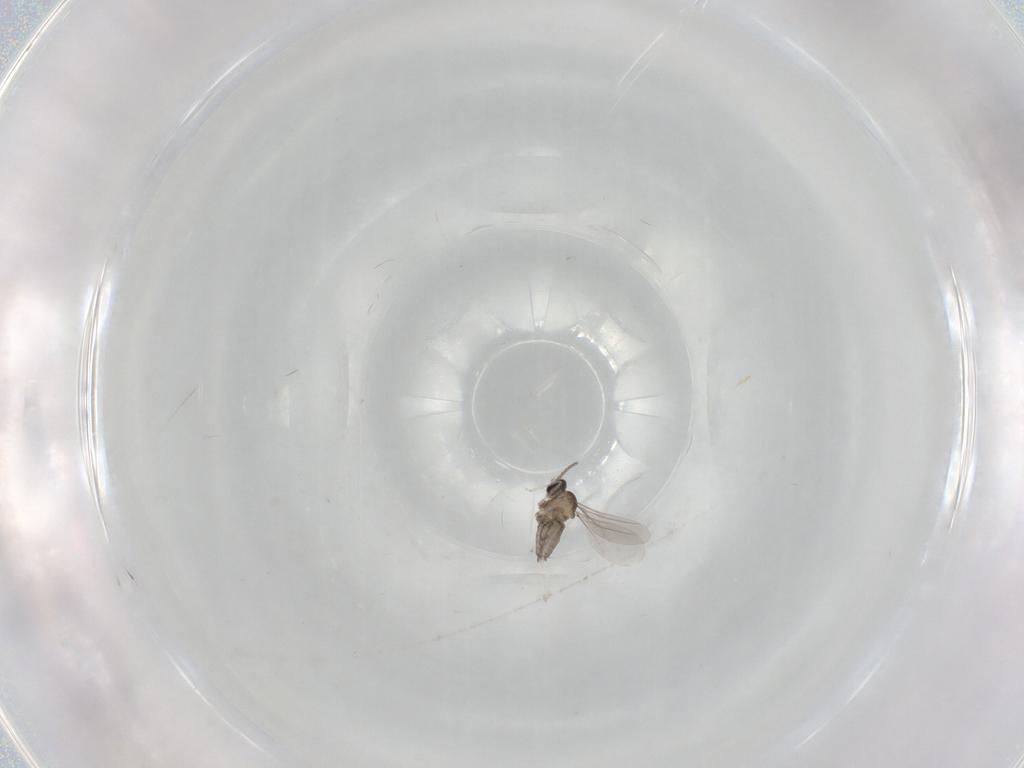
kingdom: Animalia
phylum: Arthropoda
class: Insecta
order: Diptera
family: Cecidomyiidae
